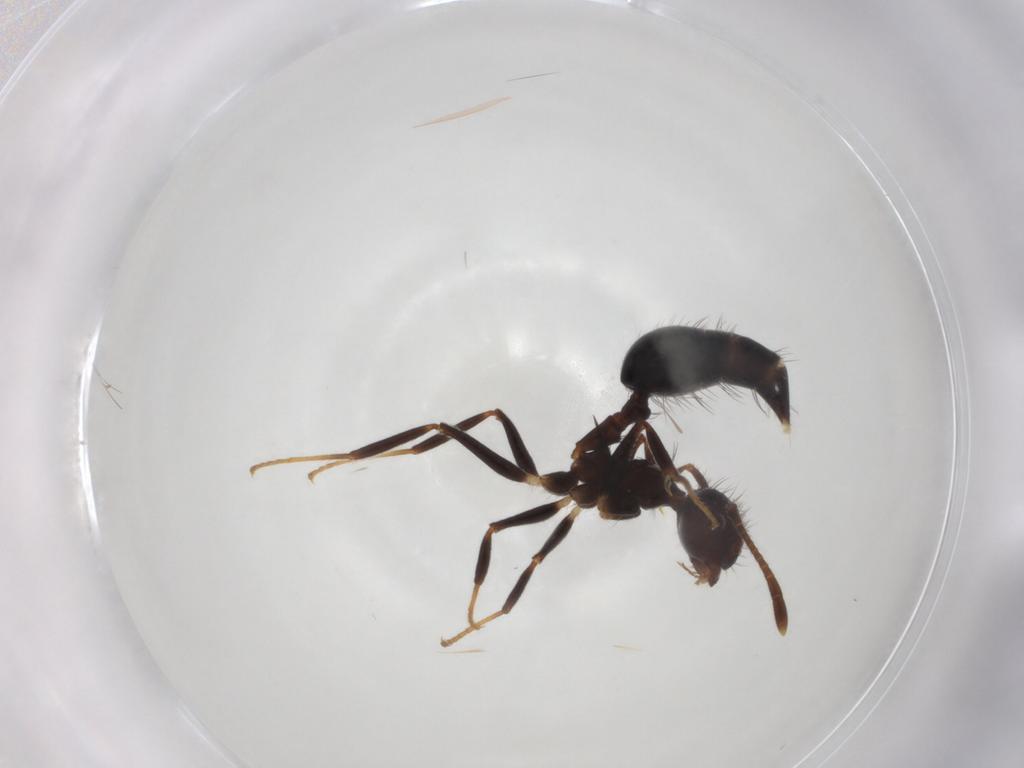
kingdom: Animalia
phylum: Arthropoda
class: Insecta
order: Hymenoptera
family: Formicidae
